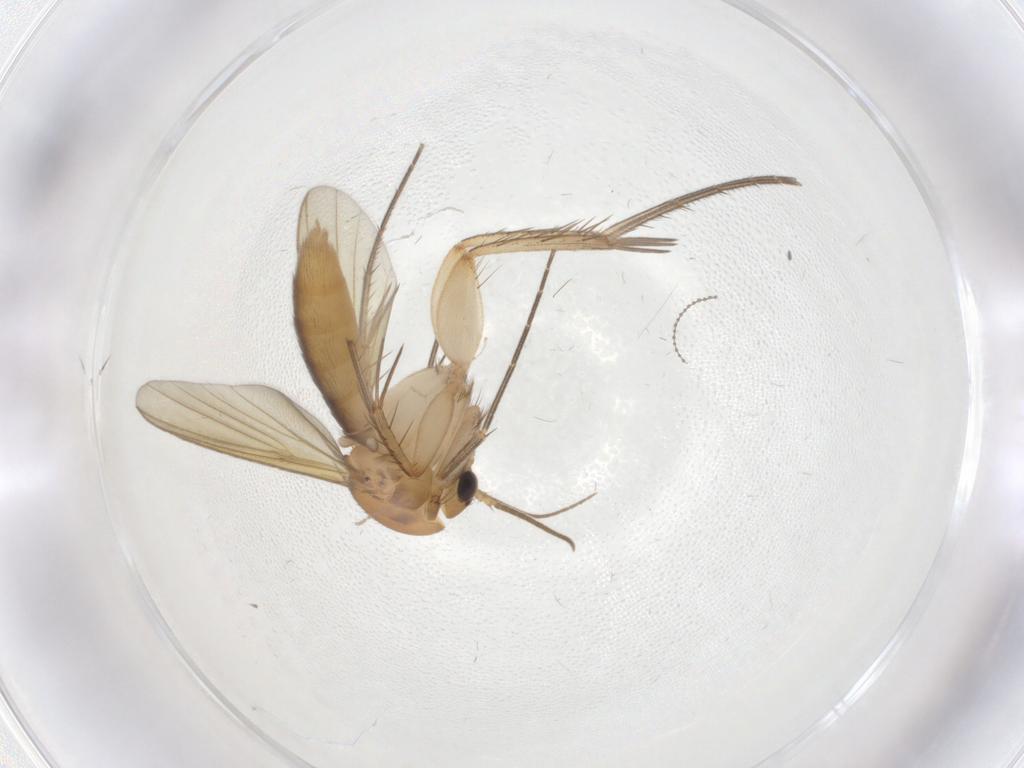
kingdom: Animalia
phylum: Arthropoda
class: Insecta
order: Diptera
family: Mycetophilidae
